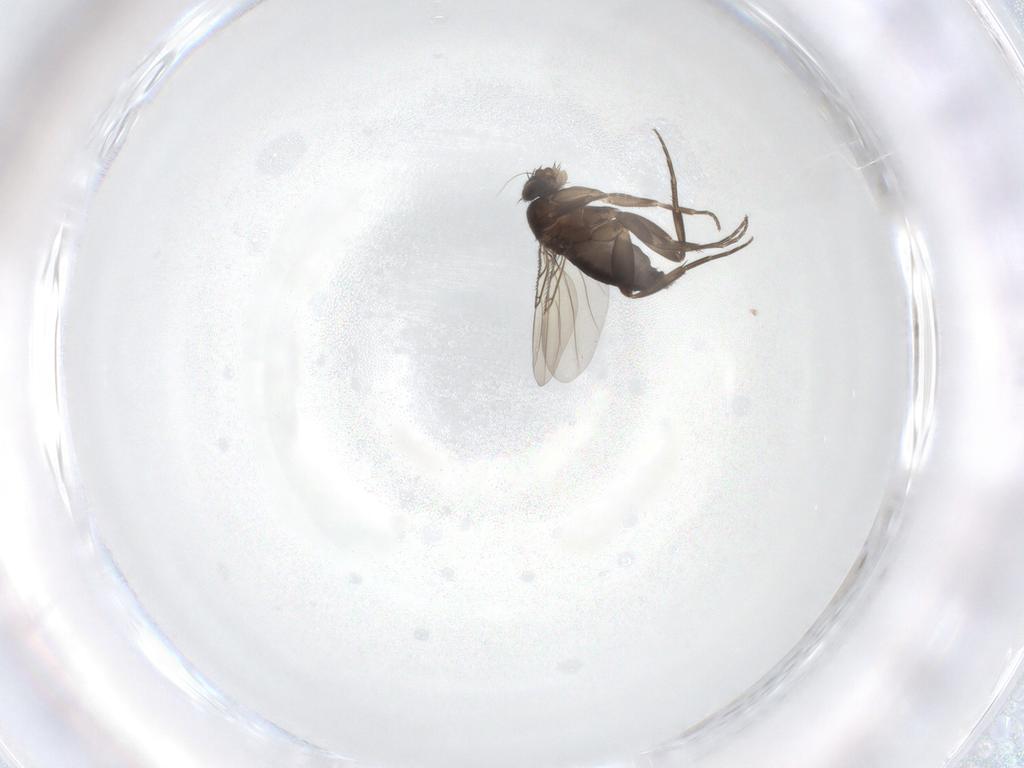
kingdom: Animalia
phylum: Arthropoda
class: Insecta
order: Diptera
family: Phoridae
